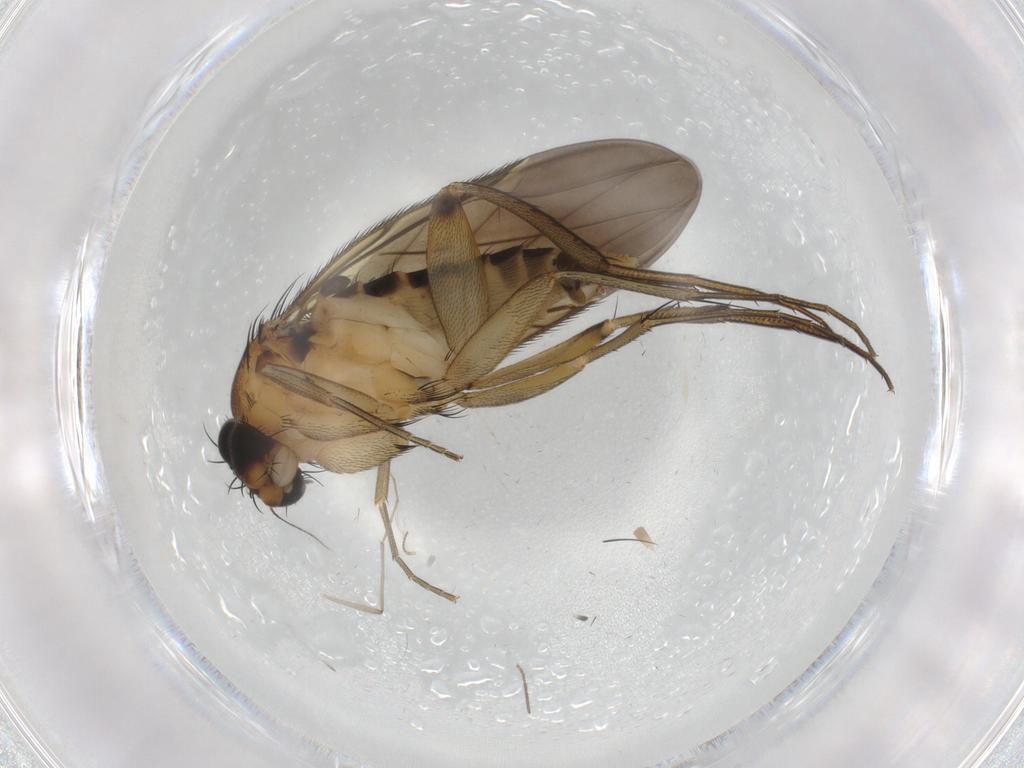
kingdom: Animalia
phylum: Arthropoda
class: Insecta
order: Diptera
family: Phoridae
